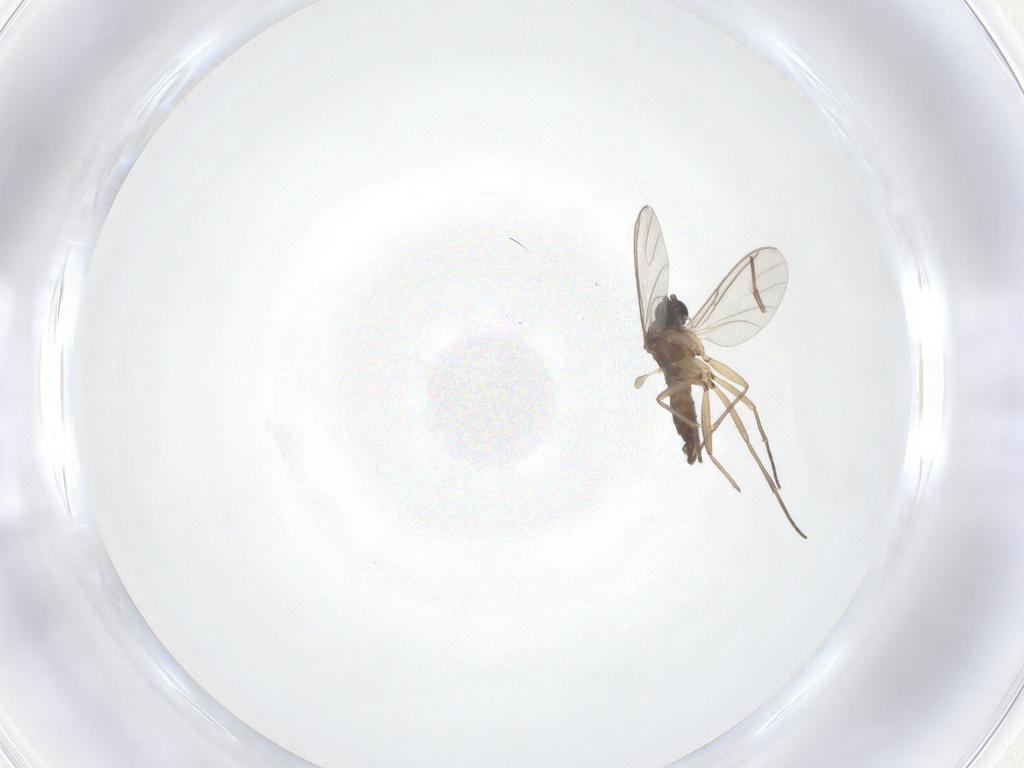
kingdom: Animalia
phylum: Arthropoda
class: Insecta
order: Diptera
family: Sciaridae
